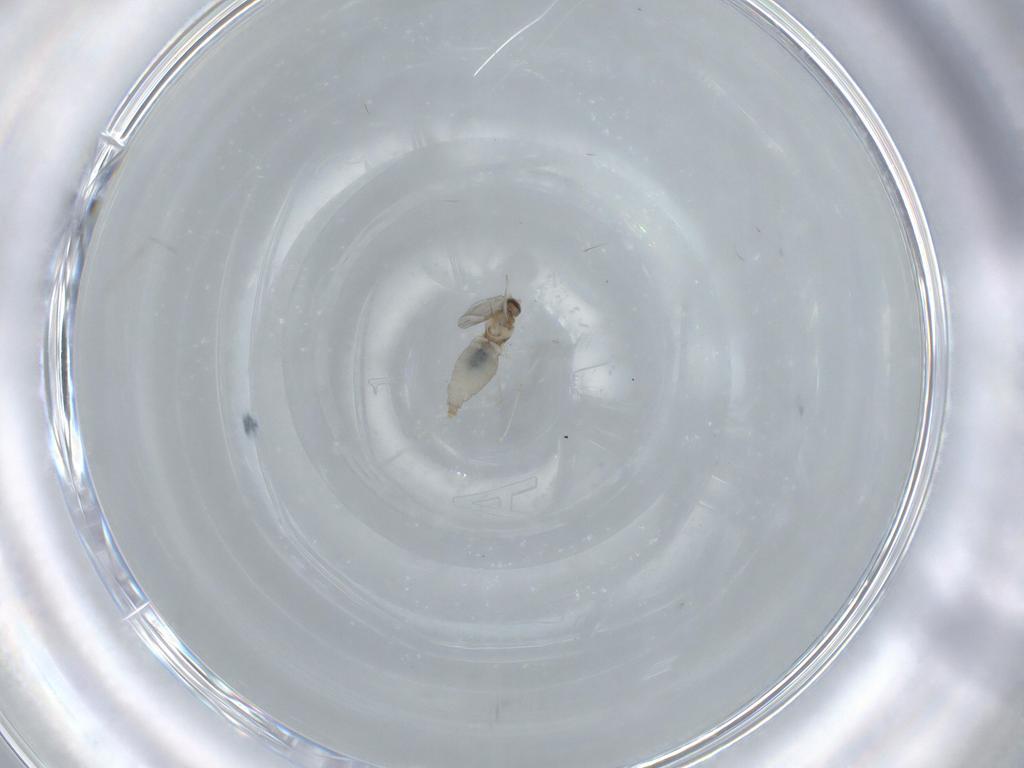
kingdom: Animalia
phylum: Arthropoda
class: Insecta
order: Diptera
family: Cecidomyiidae
